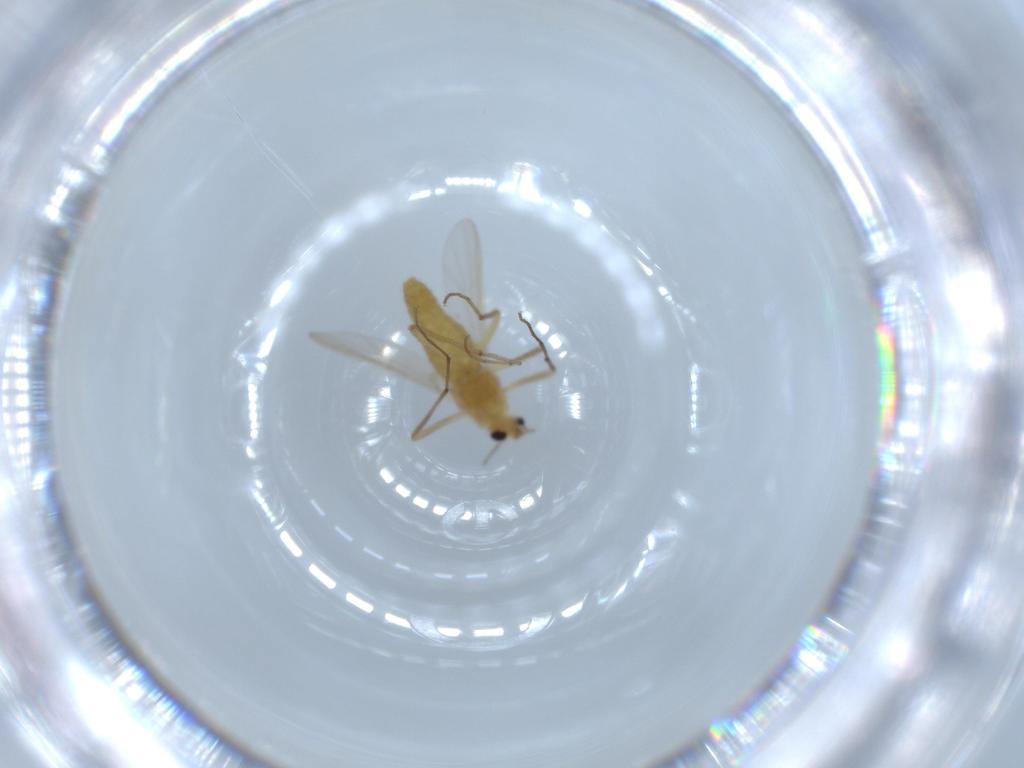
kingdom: Animalia
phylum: Arthropoda
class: Insecta
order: Diptera
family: Chironomidae
